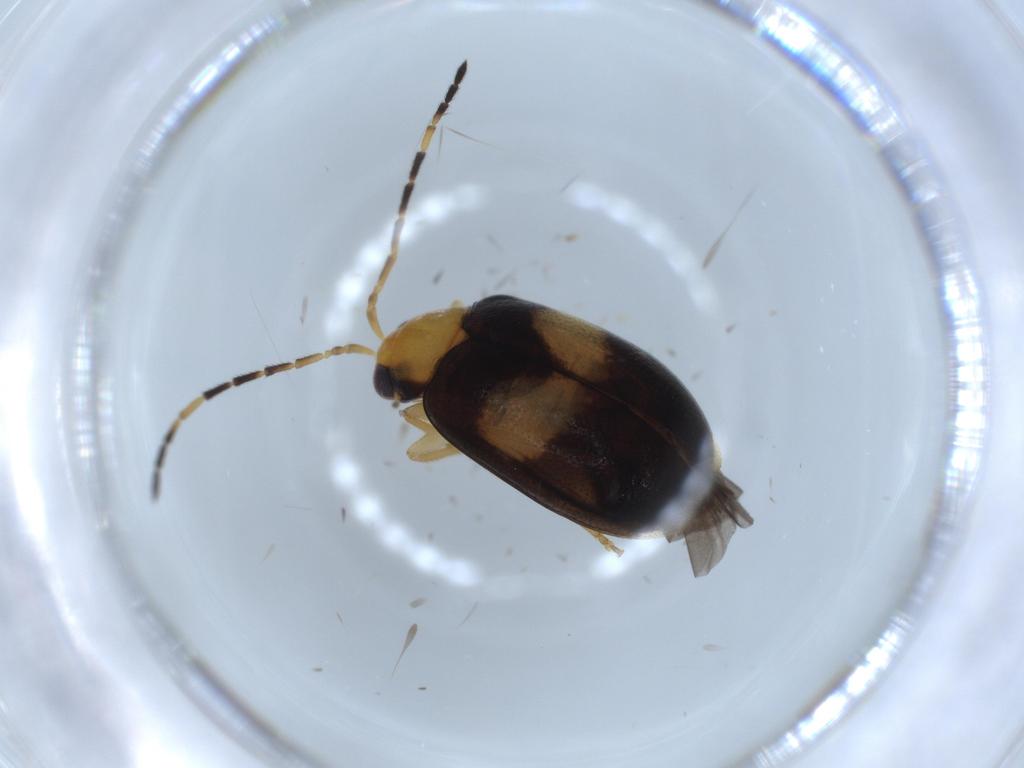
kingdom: Animalia
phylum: Arthropoda
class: Insecta
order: Coleoptera
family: Chrysomelidae
